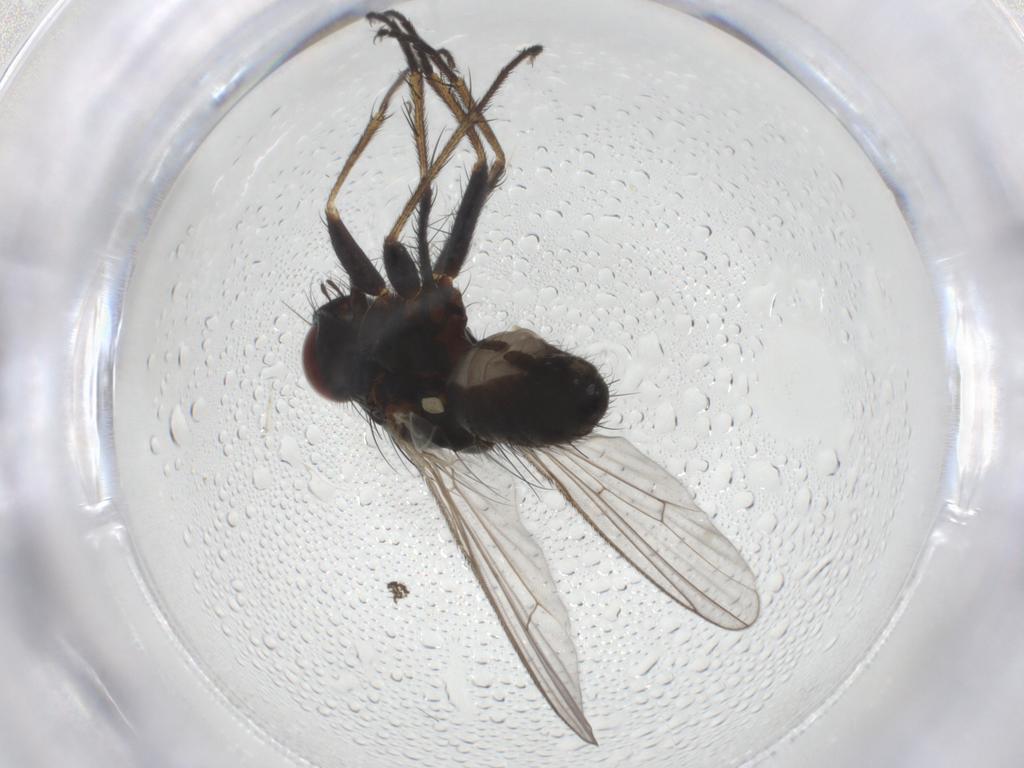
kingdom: Animalia
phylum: Arthropoda
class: Insecta
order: Diptera
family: Muscidae
